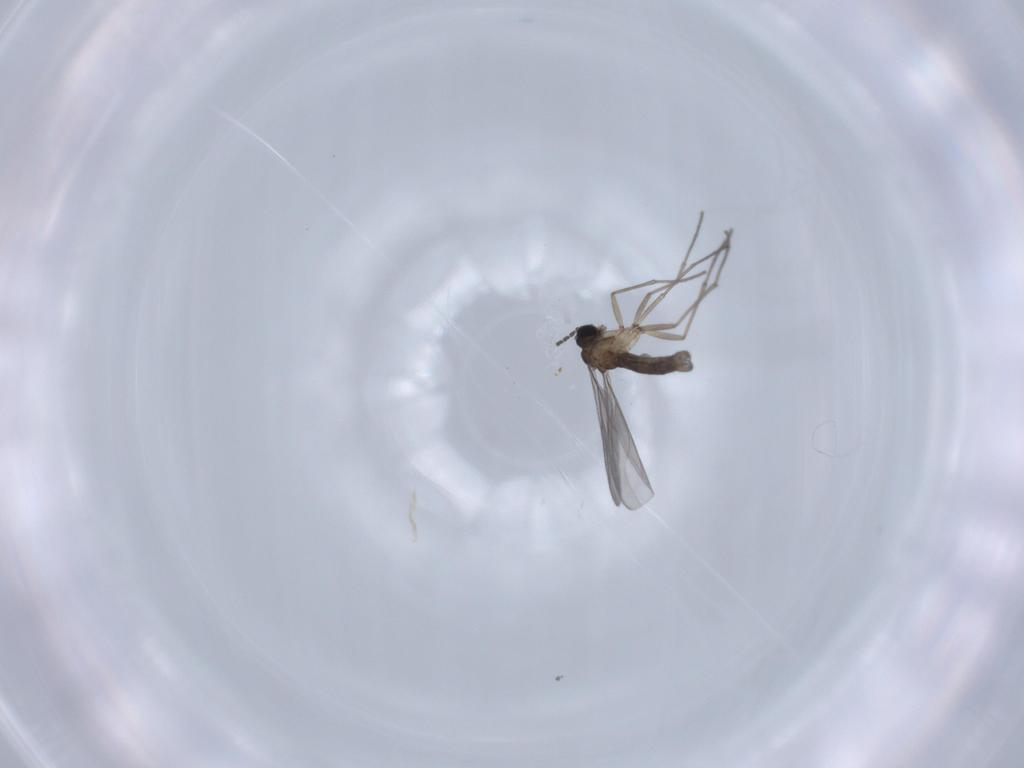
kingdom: Animalia
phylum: Arthropoda
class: Insecta
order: Diptera
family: Sciaridae
